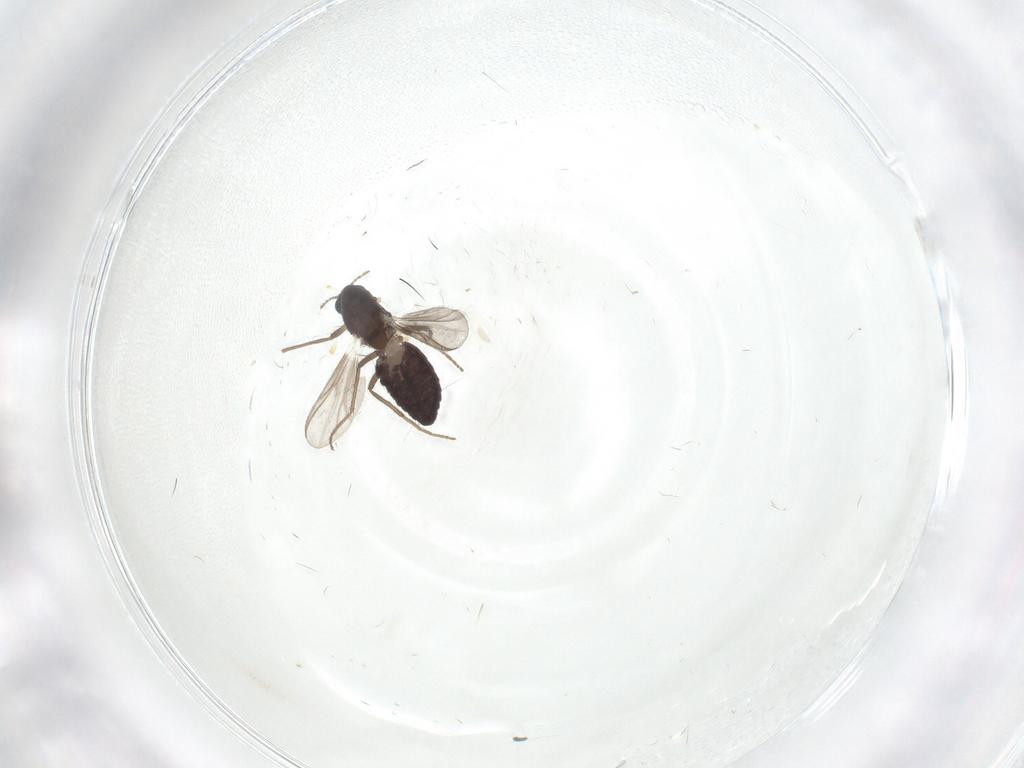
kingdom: Animalia
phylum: Arthropoda
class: Insecta
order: Diptera
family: Chironomidae
